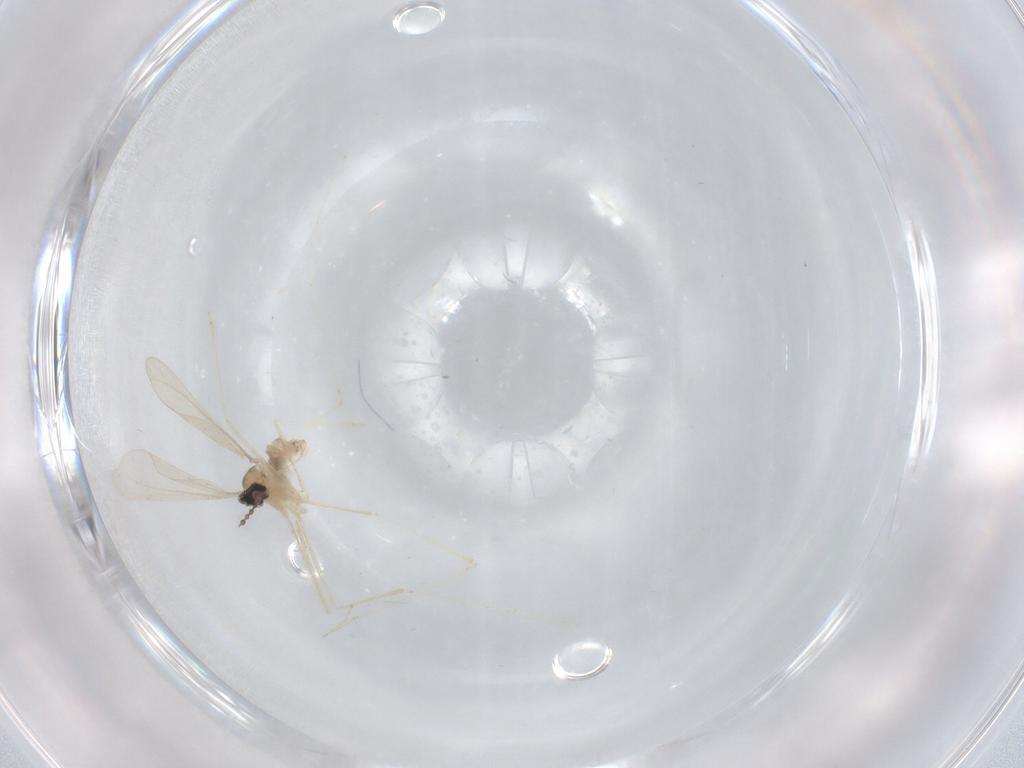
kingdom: Animalia
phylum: Arthropoda
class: Insecta
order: Diptera
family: Cecidomyiidae
